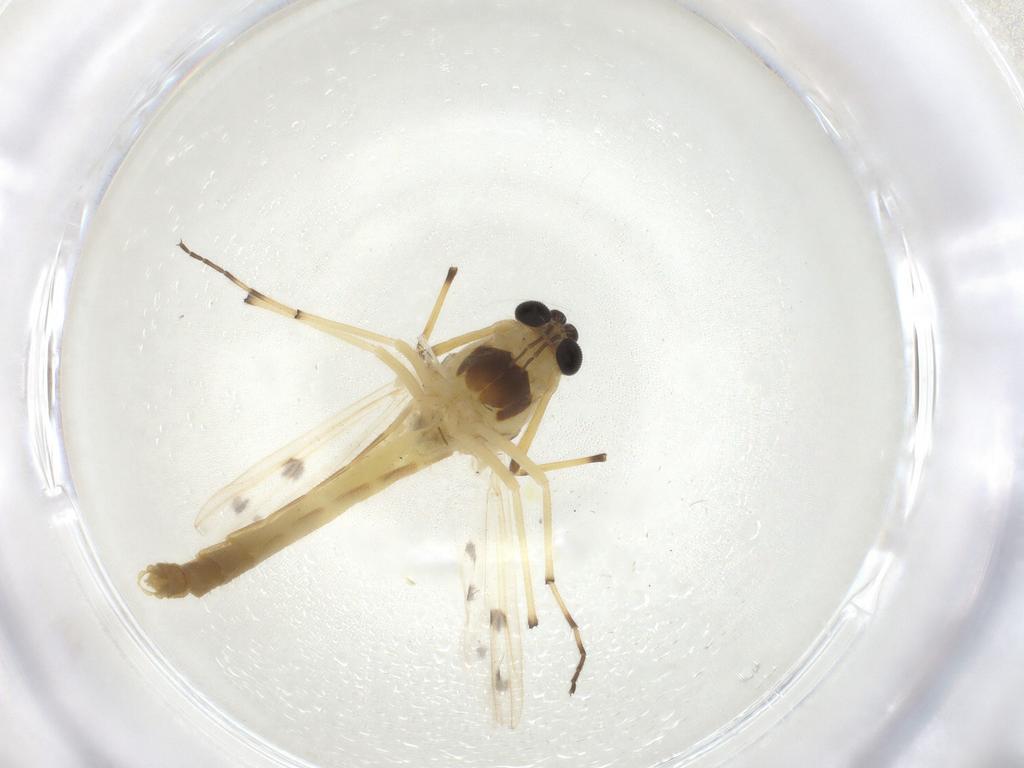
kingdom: Animalia
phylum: Arthropoda
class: Insecta
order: Diptera
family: Chironomidae
